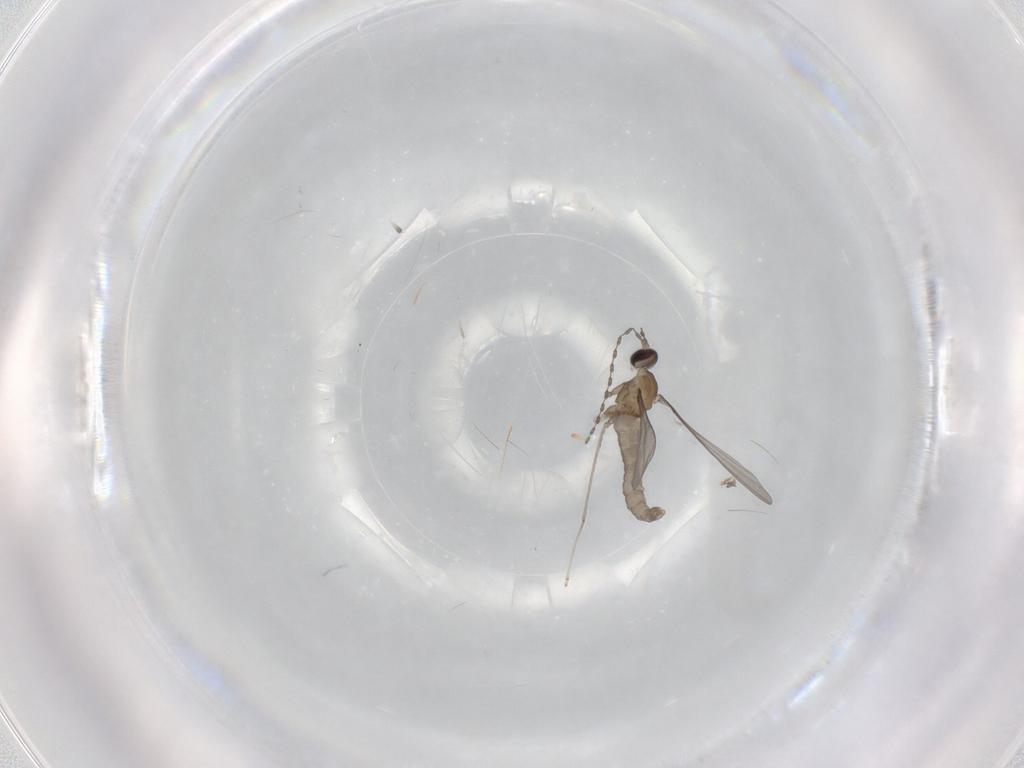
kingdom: Animalia
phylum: Arthropoda
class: Insecta
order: Diptera
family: Cecidomyiidae
